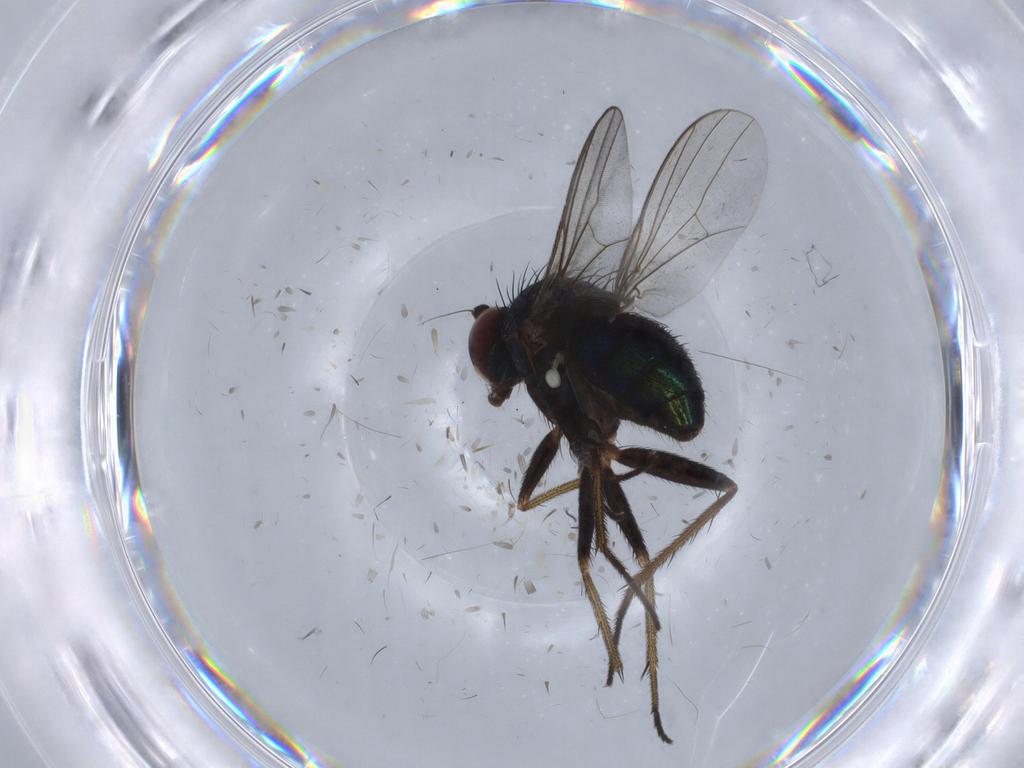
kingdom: Animalia
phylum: Arthropoda
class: Insecta
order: Diptera
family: Dolichopodidae
